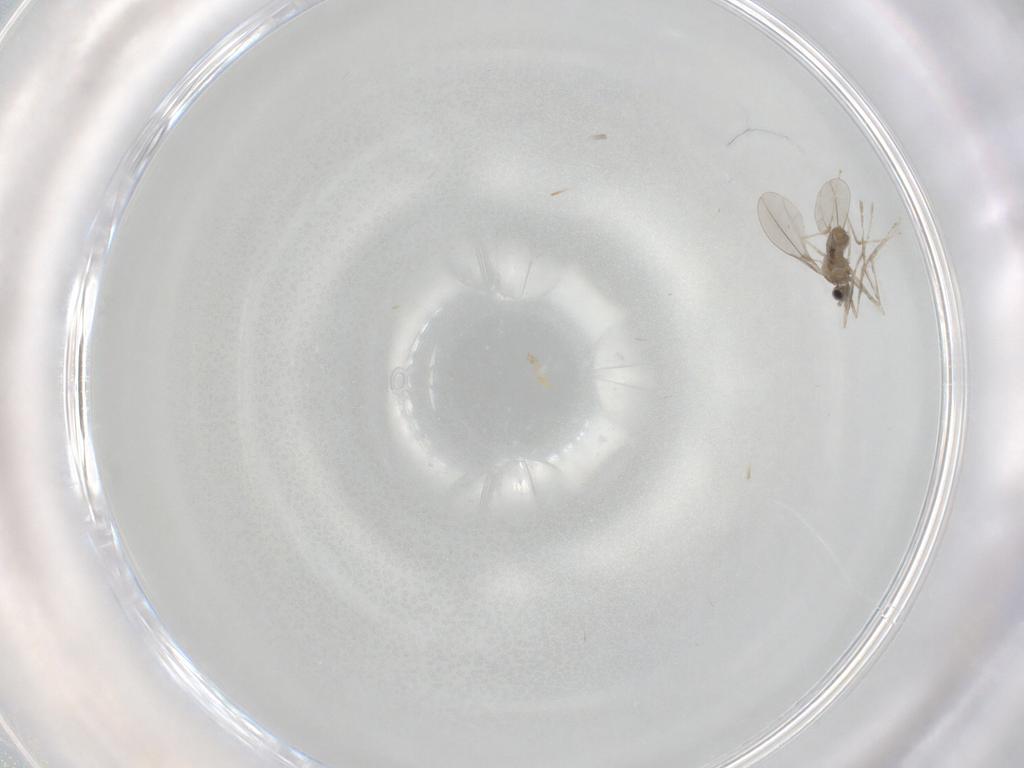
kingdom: Animalia
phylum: Arthropoda
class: Insecta
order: Diptera
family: Cecidomyiidae
